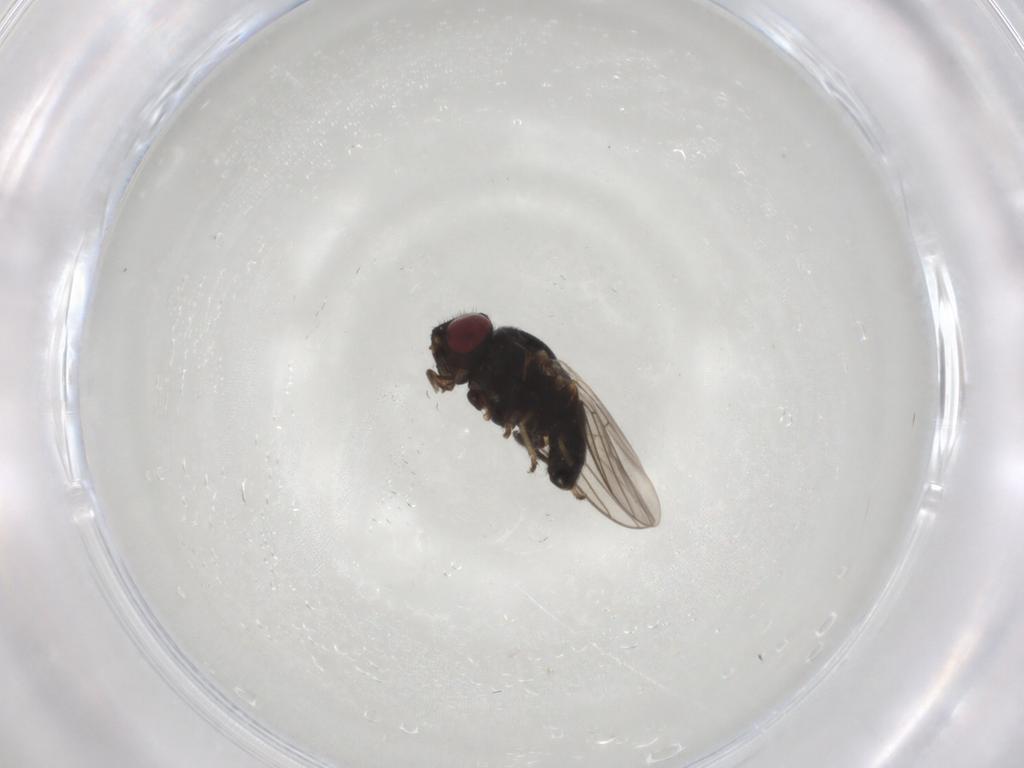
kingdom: Animalia
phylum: Arthropoda
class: Insecta
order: Diptera
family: Chloropidae
